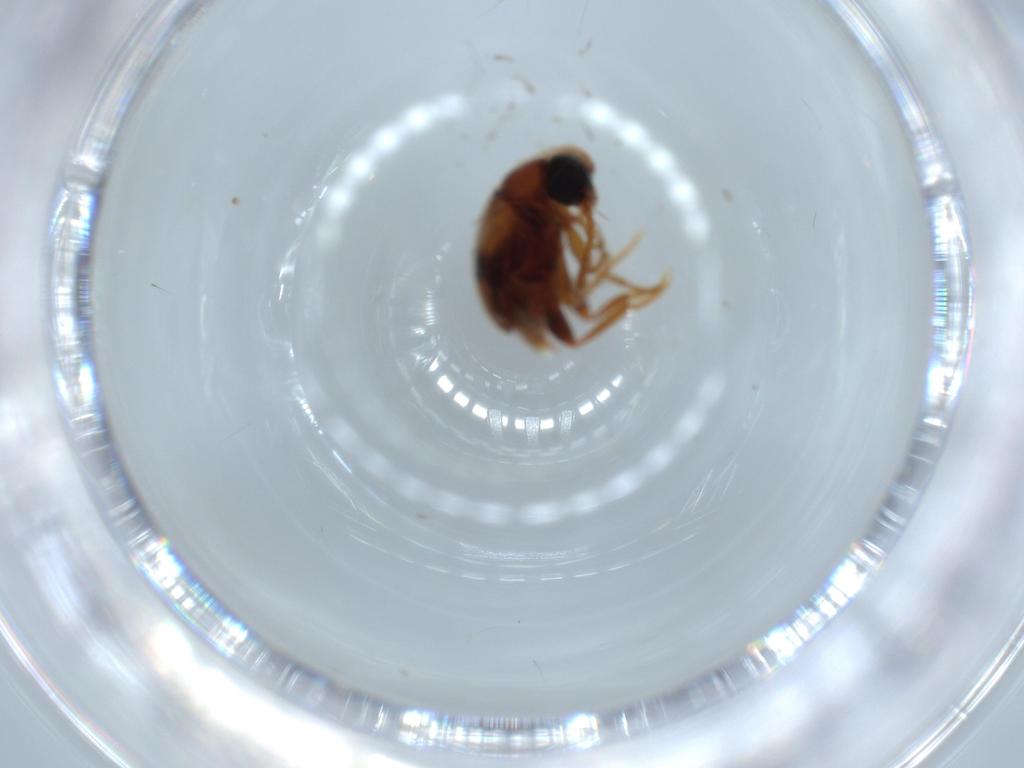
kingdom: Animalia
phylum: Arthropoda
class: Insecta
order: Coleoptera
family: Aderidae
